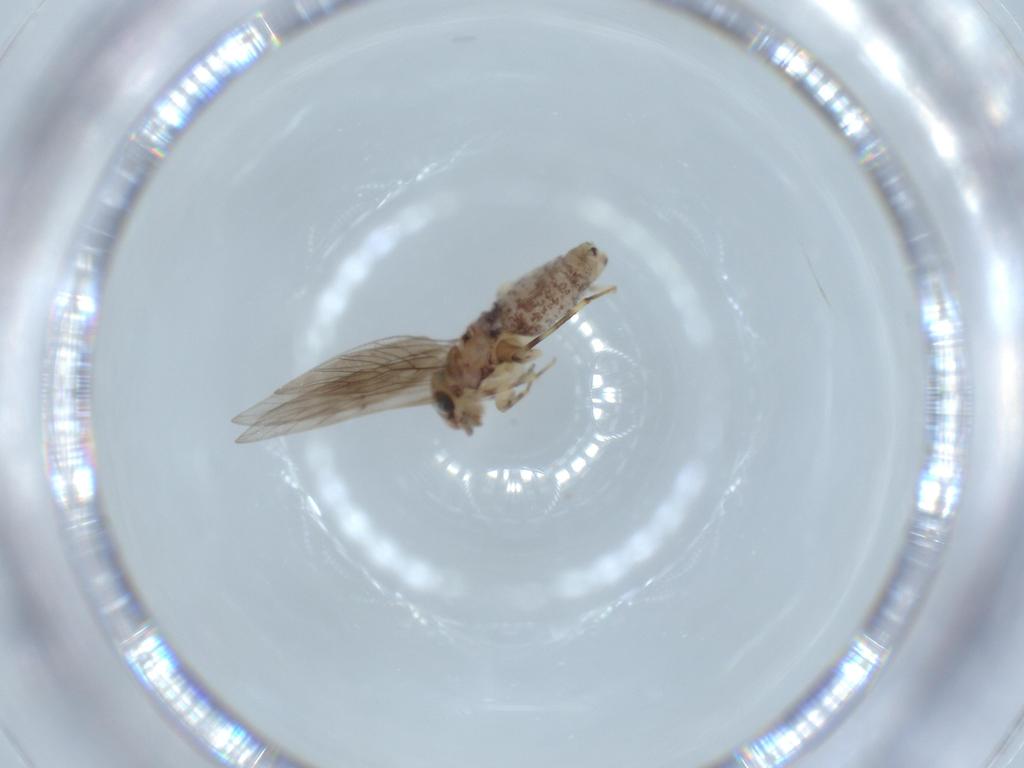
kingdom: Animalia
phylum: Arthropoda
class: Insecta
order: Psocodea
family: Lepidopsocidae
